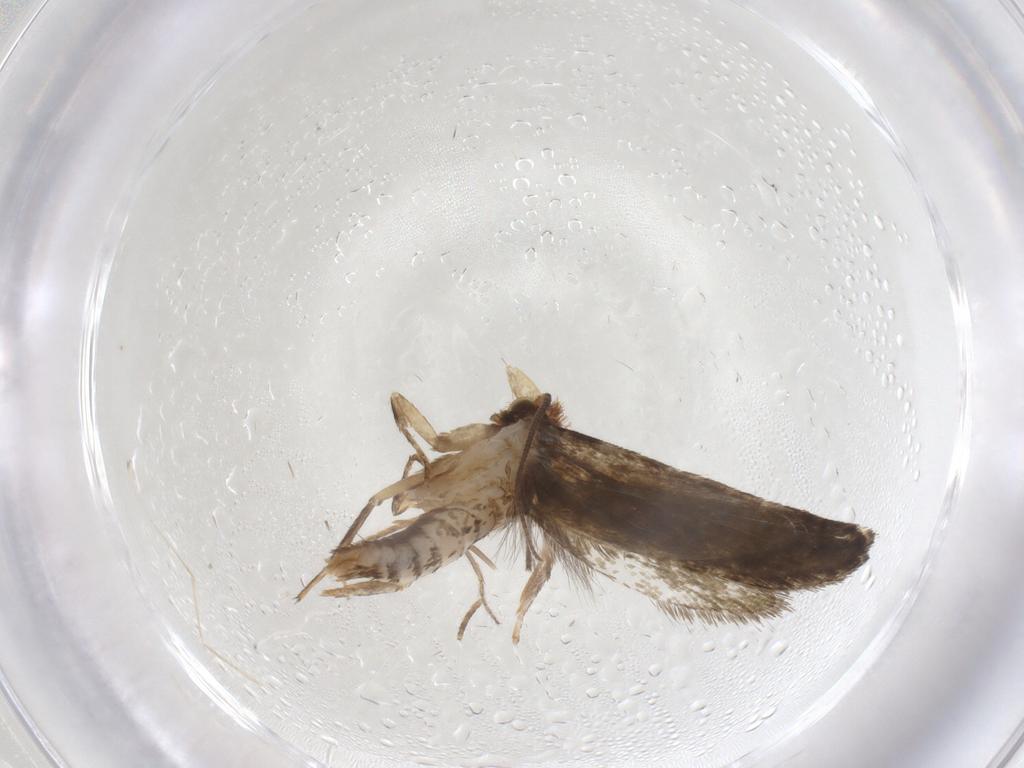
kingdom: Animalia
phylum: Arthropoda
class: Insecta
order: Lepidoptera
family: Tineidae
